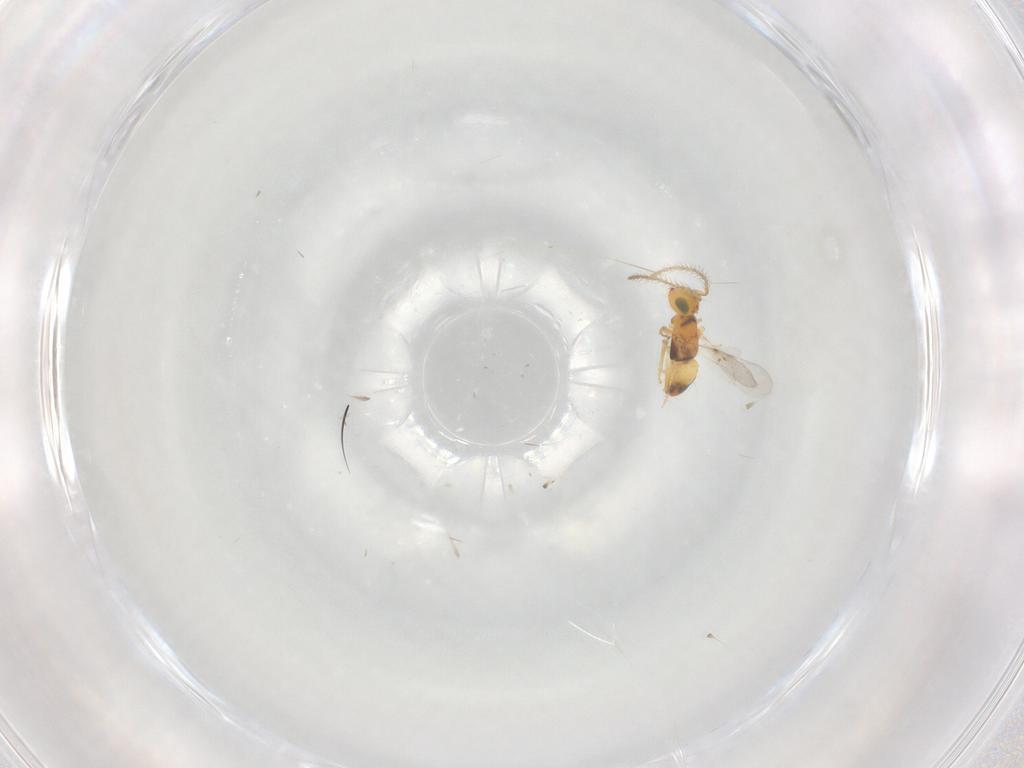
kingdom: Animalia
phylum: Arthropoda
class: Insecta
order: Hymenoptera
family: Encyrtidae
